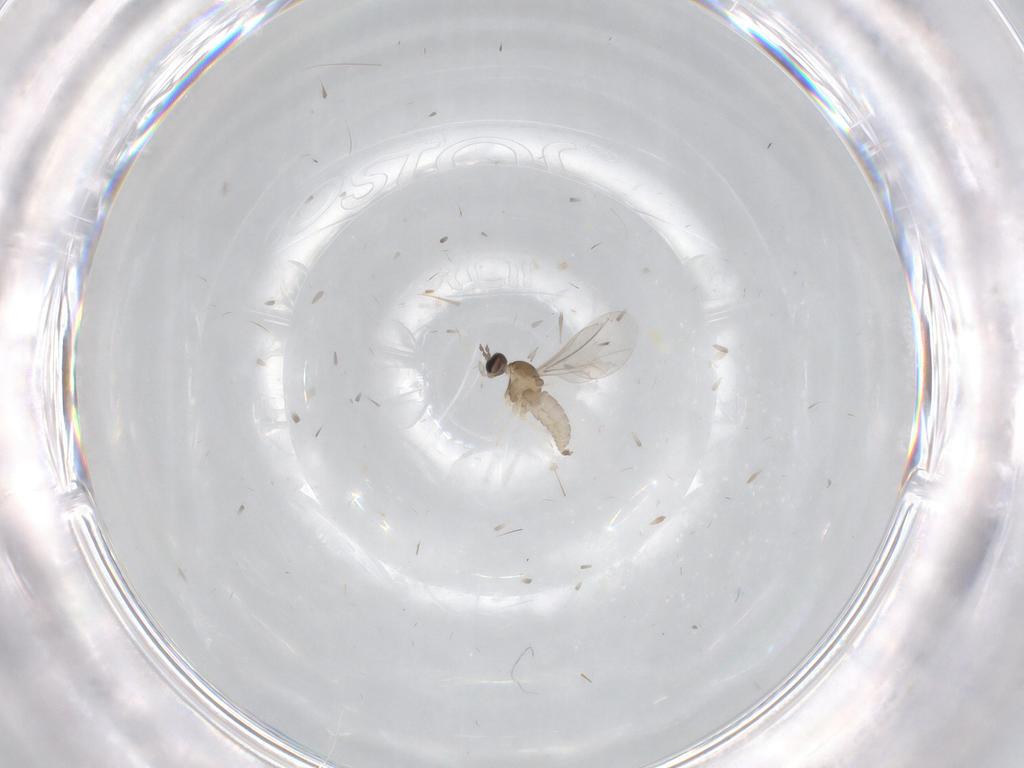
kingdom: Animalia
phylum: Arthropoda
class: Insecta
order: Diptera
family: Cecidomyiidae
